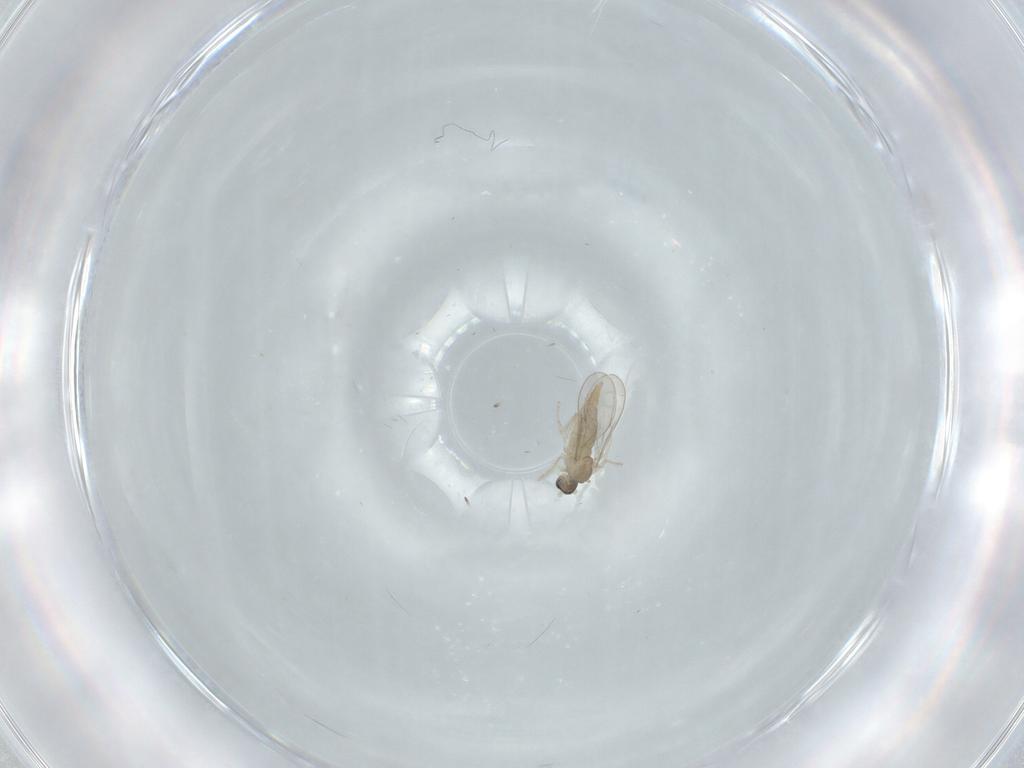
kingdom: Animalia
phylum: Arthropoda
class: Insecta
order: Diptera
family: Cecidomyiidae
